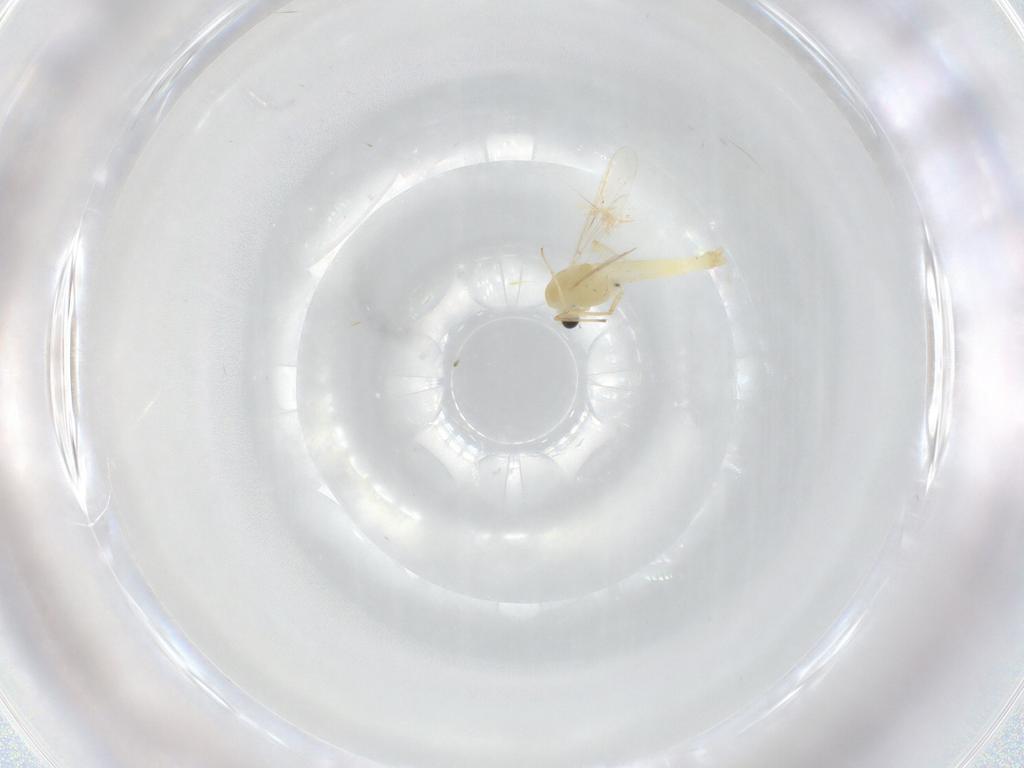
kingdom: Animalia
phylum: Arthropoda
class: Insecta
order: Diptera
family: Chironomidae
